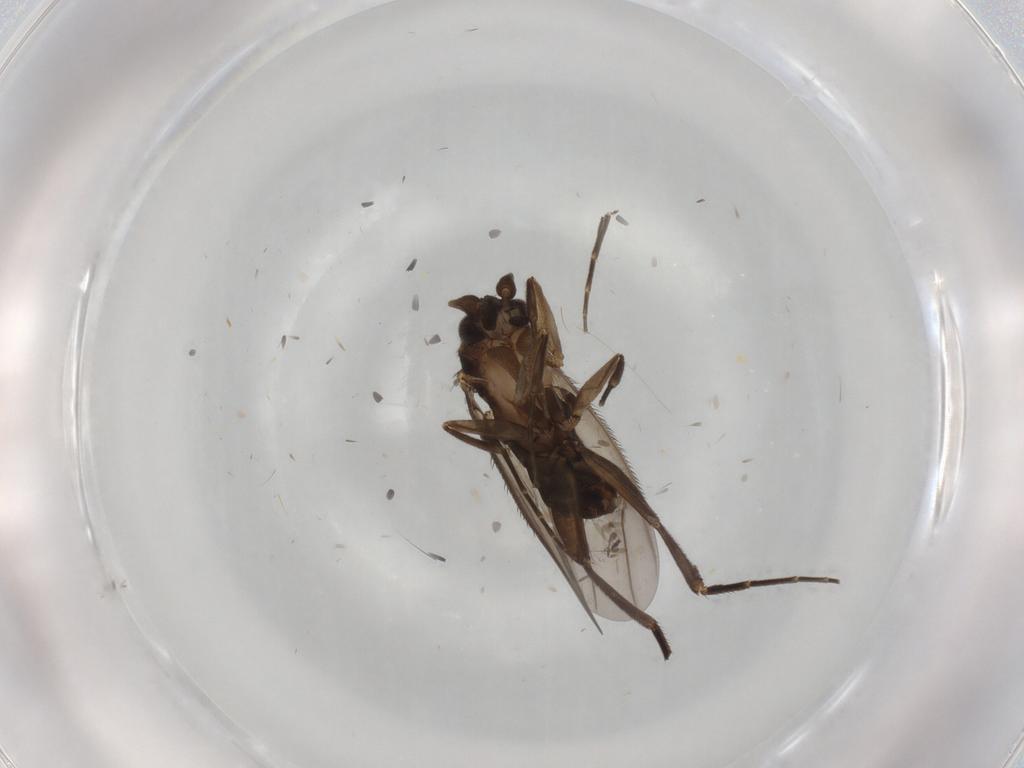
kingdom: Animalia
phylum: Arthropoda
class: Insecta
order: Diptera
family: Phoridae
